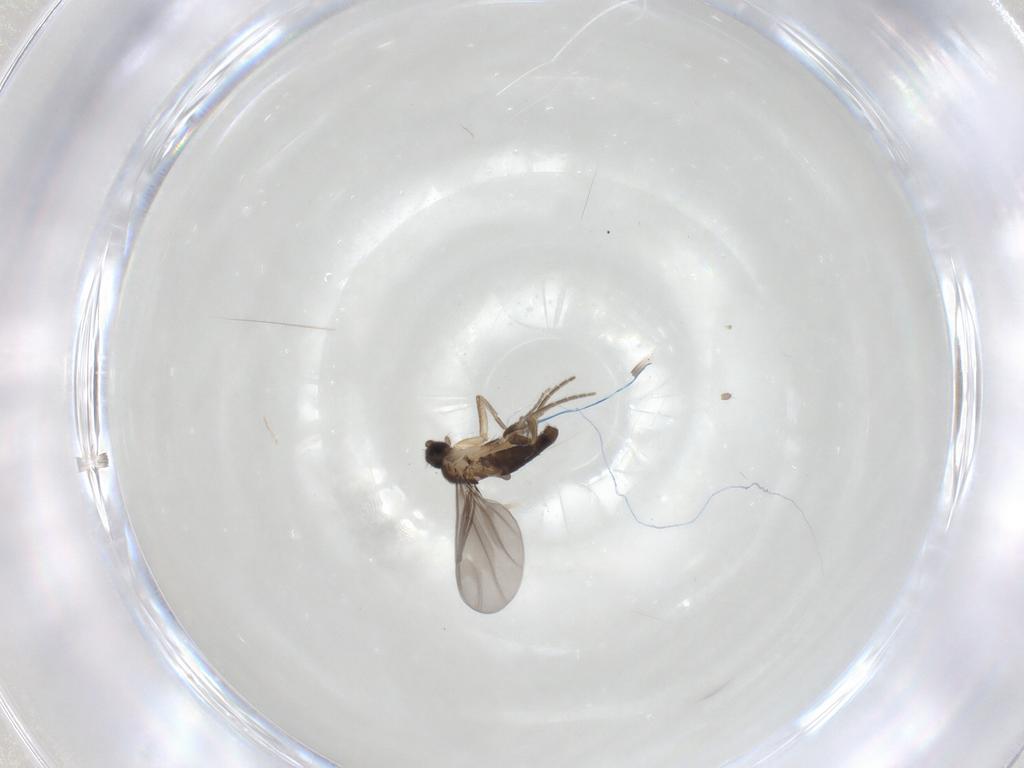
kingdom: Animalia
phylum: Arthropoda
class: Insecta
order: Diptera
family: Phoridae
